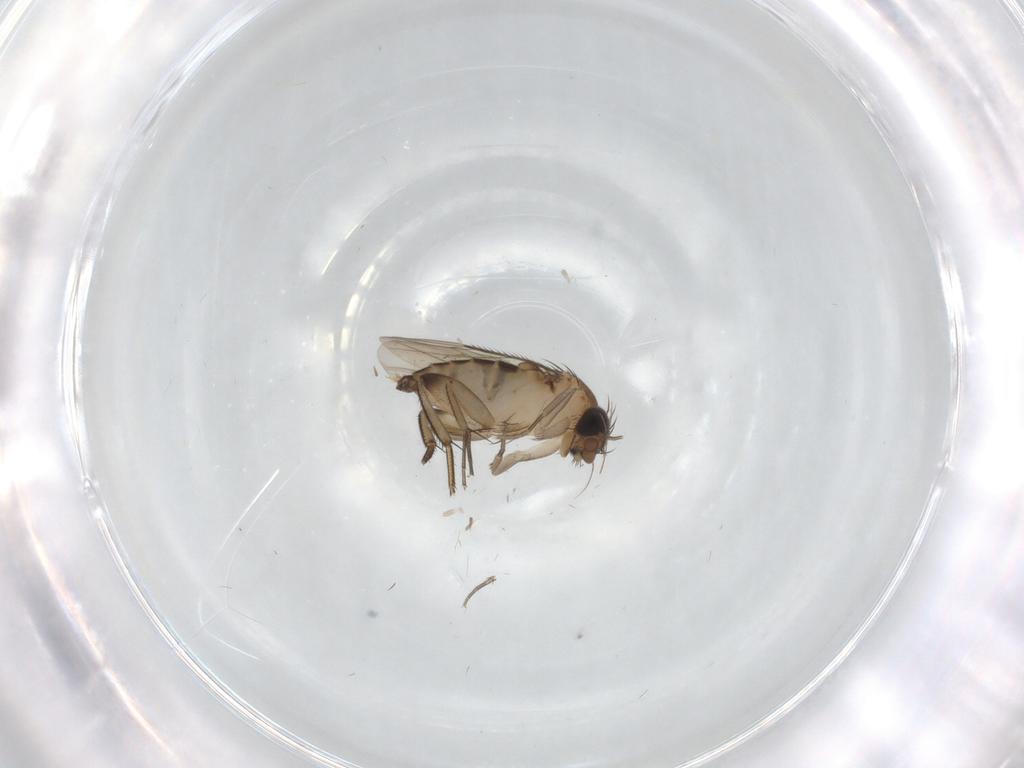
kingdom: Animalia
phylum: Arthropoda
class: Insecta
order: Diptera
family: Phoridae
